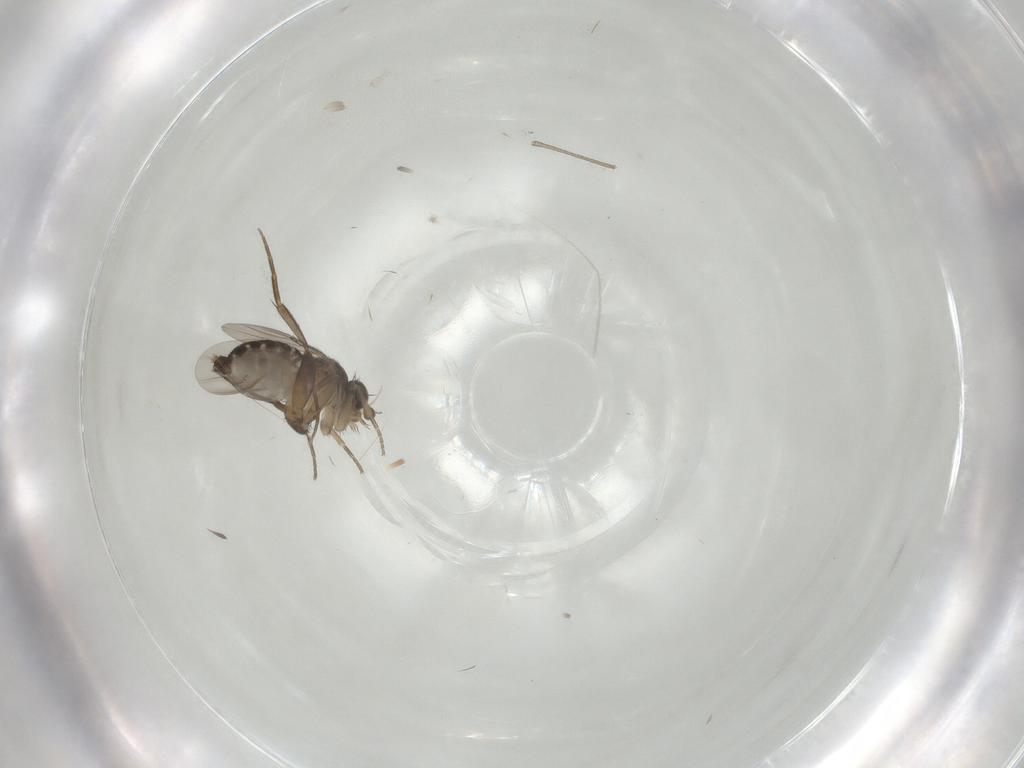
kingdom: Animalia
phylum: Arthropoda
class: Insecta
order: Diptera
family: Phoridae
